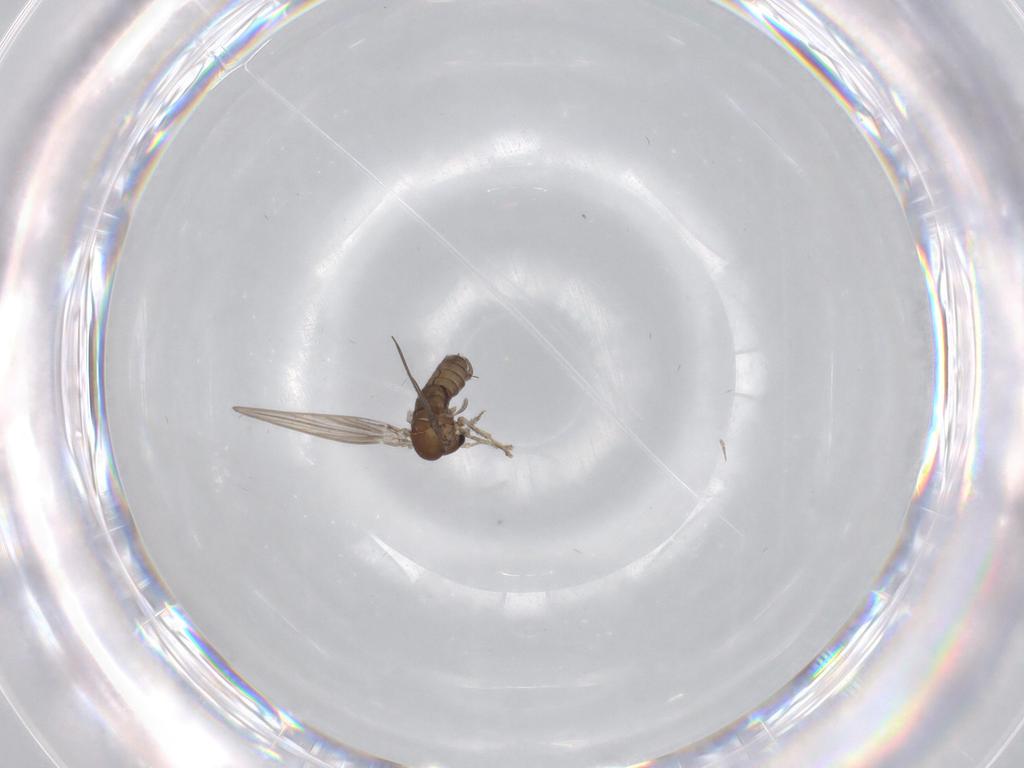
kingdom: Animalia
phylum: Arthropoda
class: Insecta
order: Diptera
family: Psychodidae
